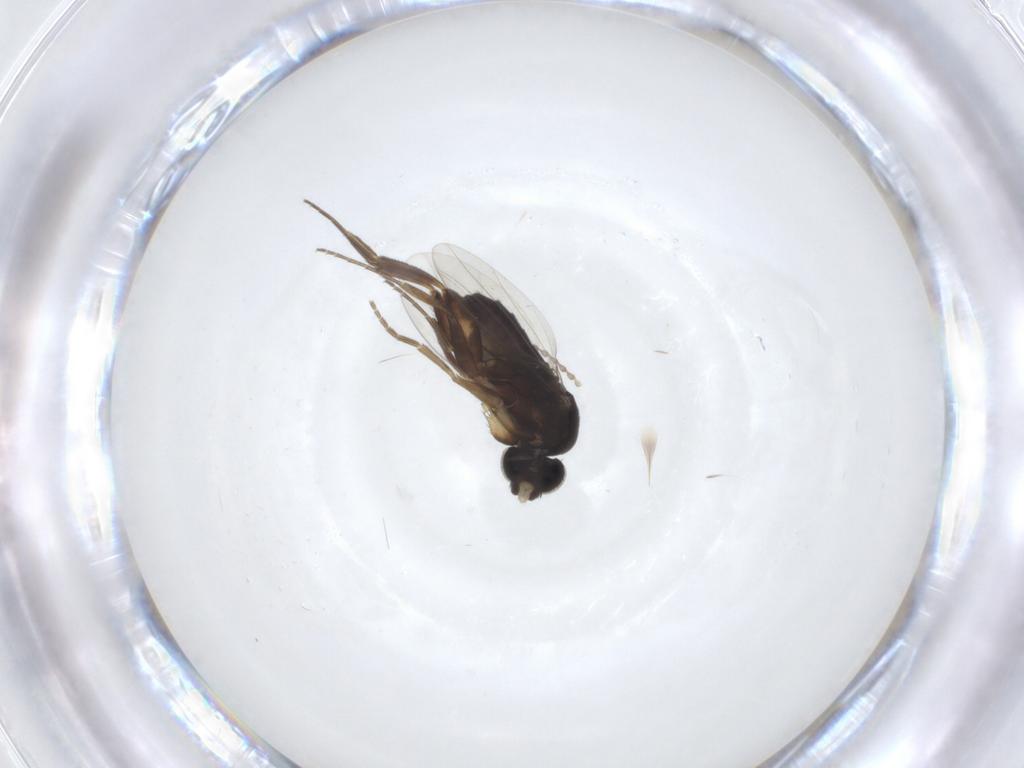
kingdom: Animalia
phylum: Arthropoda
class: Insecta
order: Diptera
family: Phoridae
